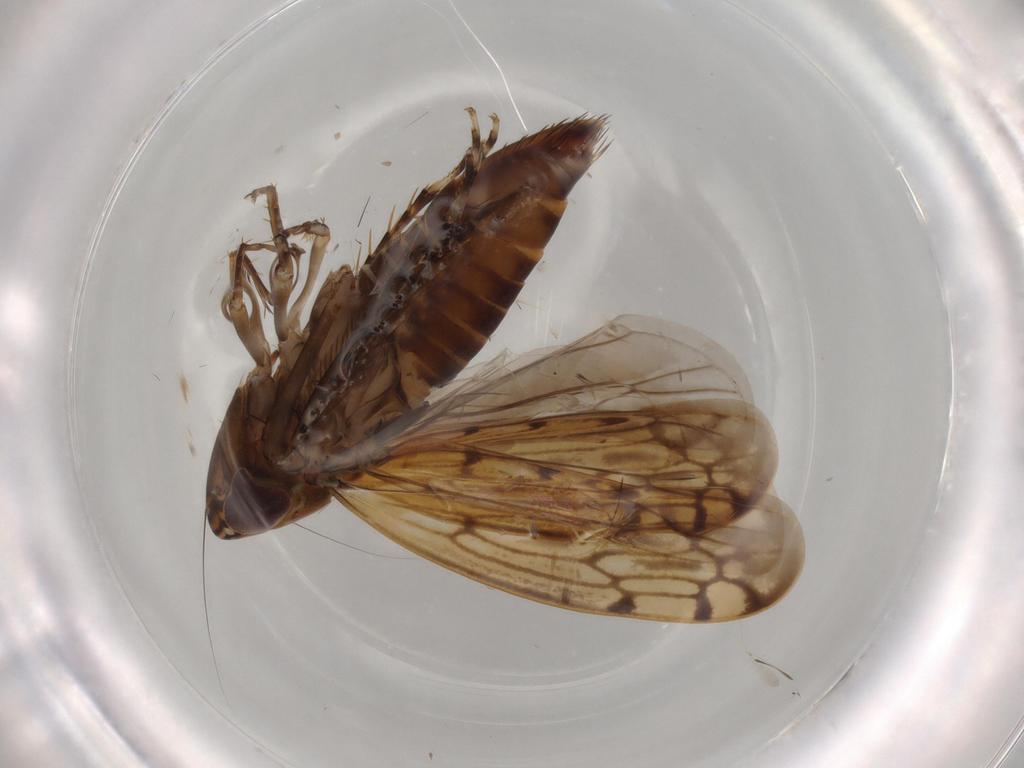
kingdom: Animalia
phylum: Arthropoda
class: Insecta
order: Hemiptera
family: Cicadellidae
